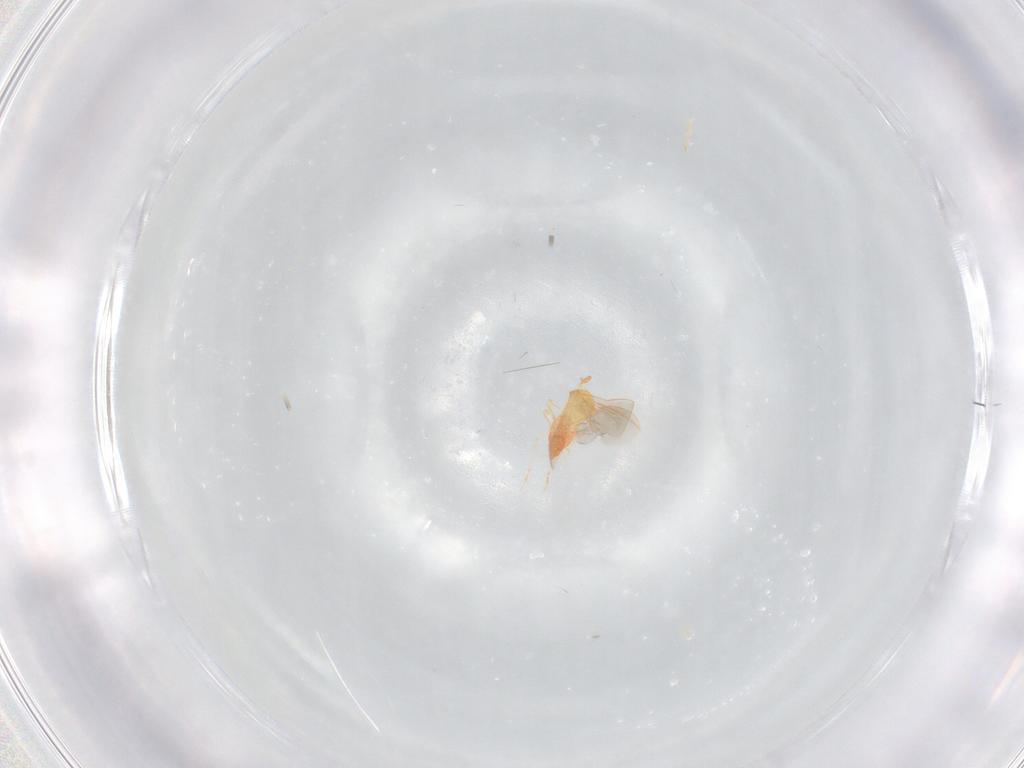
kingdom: Animalia
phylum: Arthropoda
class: Insecta
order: Hemiptera
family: Aleyrodidae
